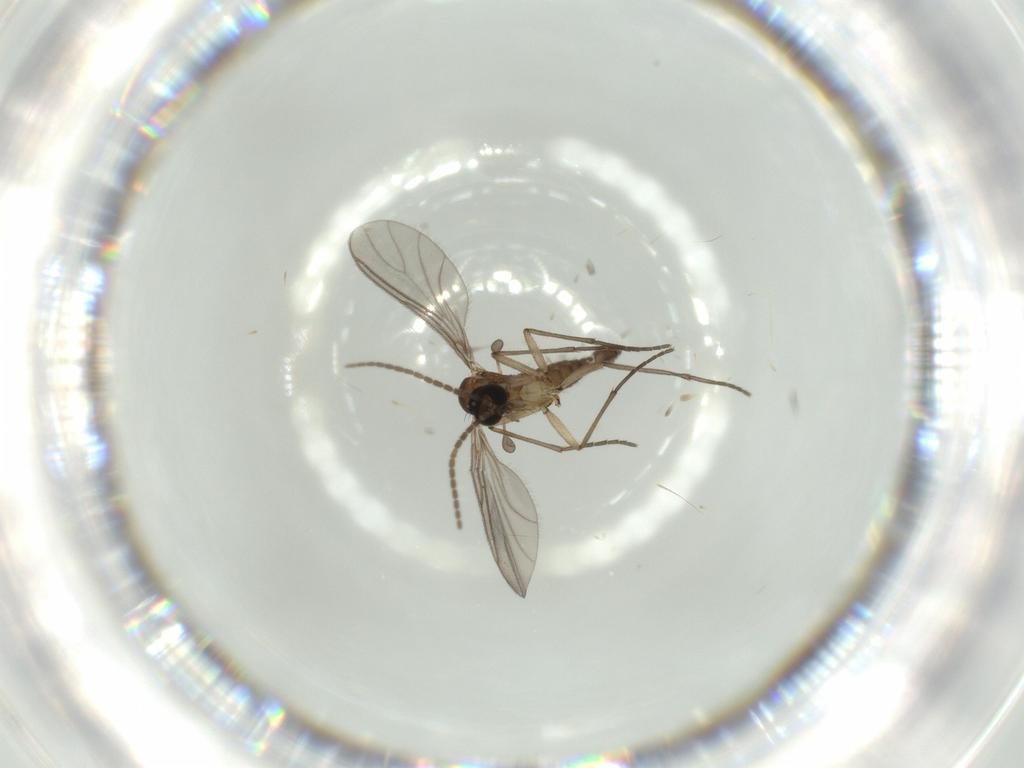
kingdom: Animalia
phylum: Arthropoda
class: Insecta
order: Diptera
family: Sciaridae
